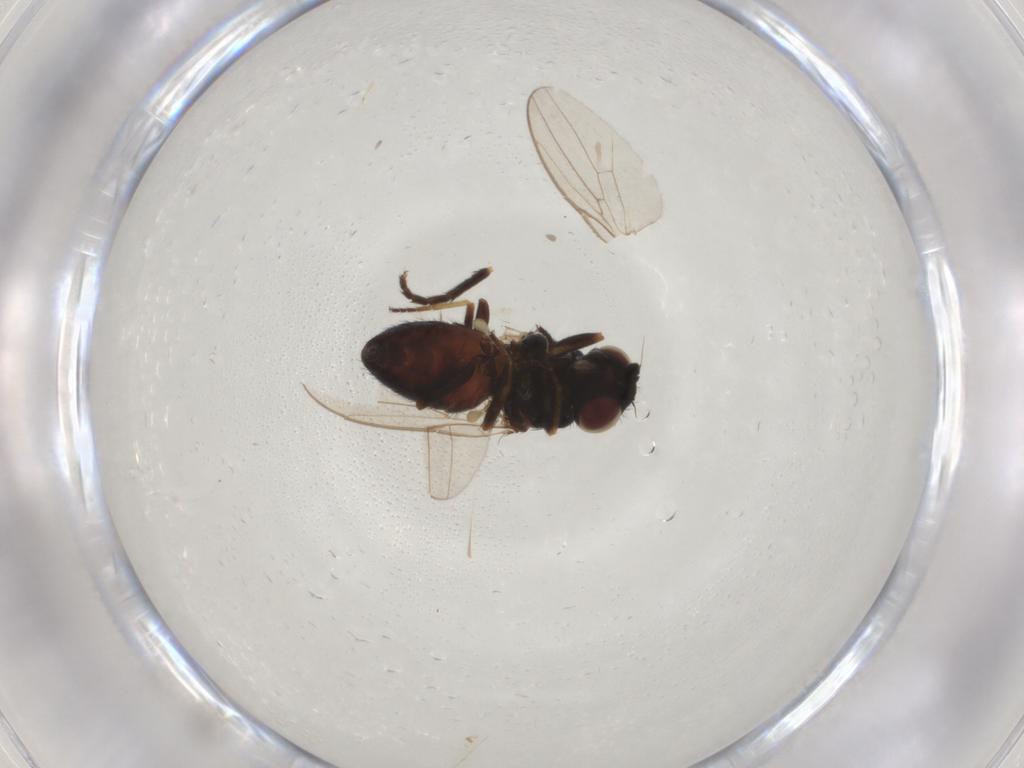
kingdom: Animalia
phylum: Arthropoda
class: Insecta
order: Diptera
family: Chloropidae
